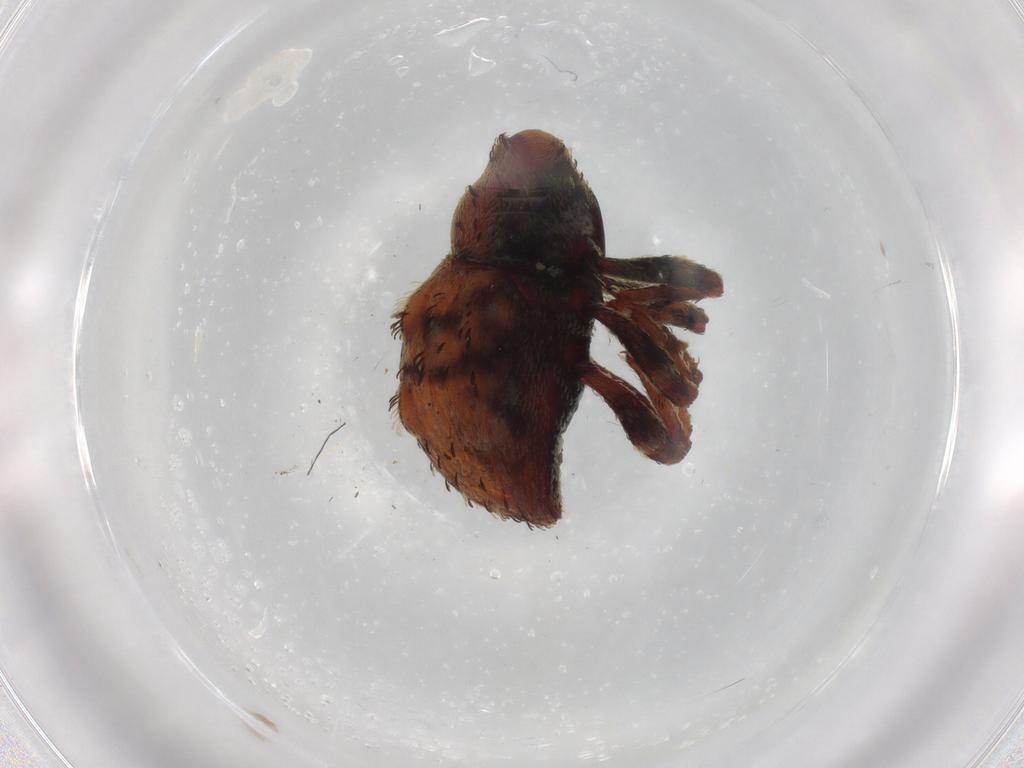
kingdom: Animalia
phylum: Arthropoda
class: Insecta
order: Coleoptera
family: Curculionidae
